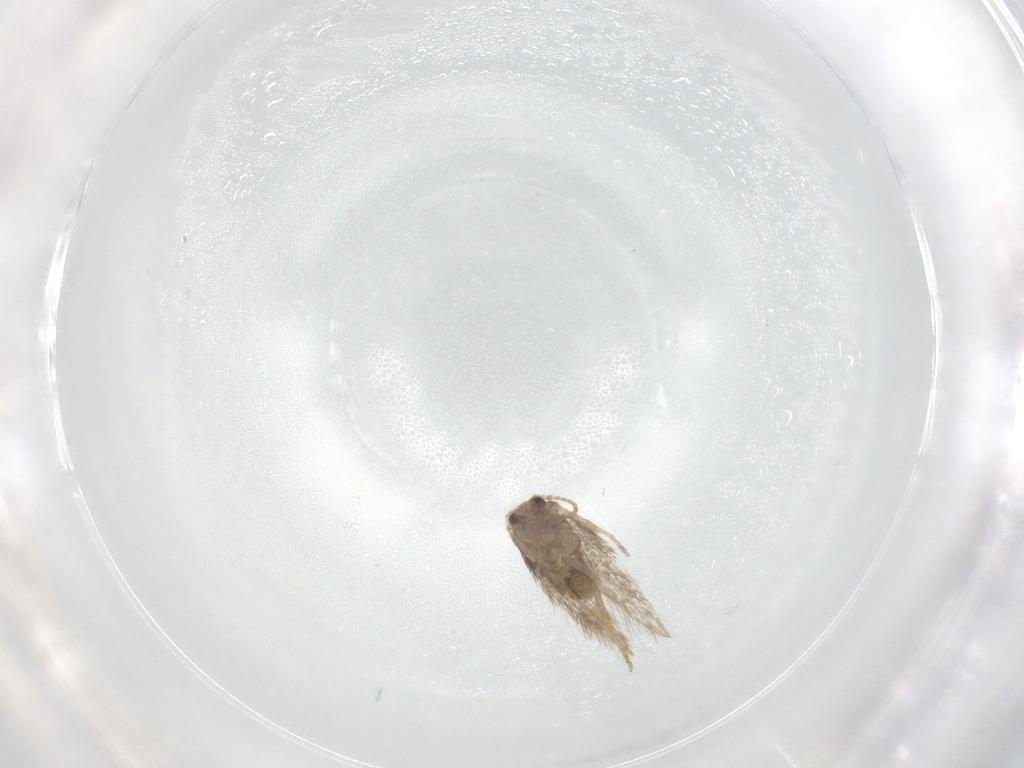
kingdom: Animalia
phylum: Arthropoda
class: Insecta
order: Lepidoptera
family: Nepticulidae
